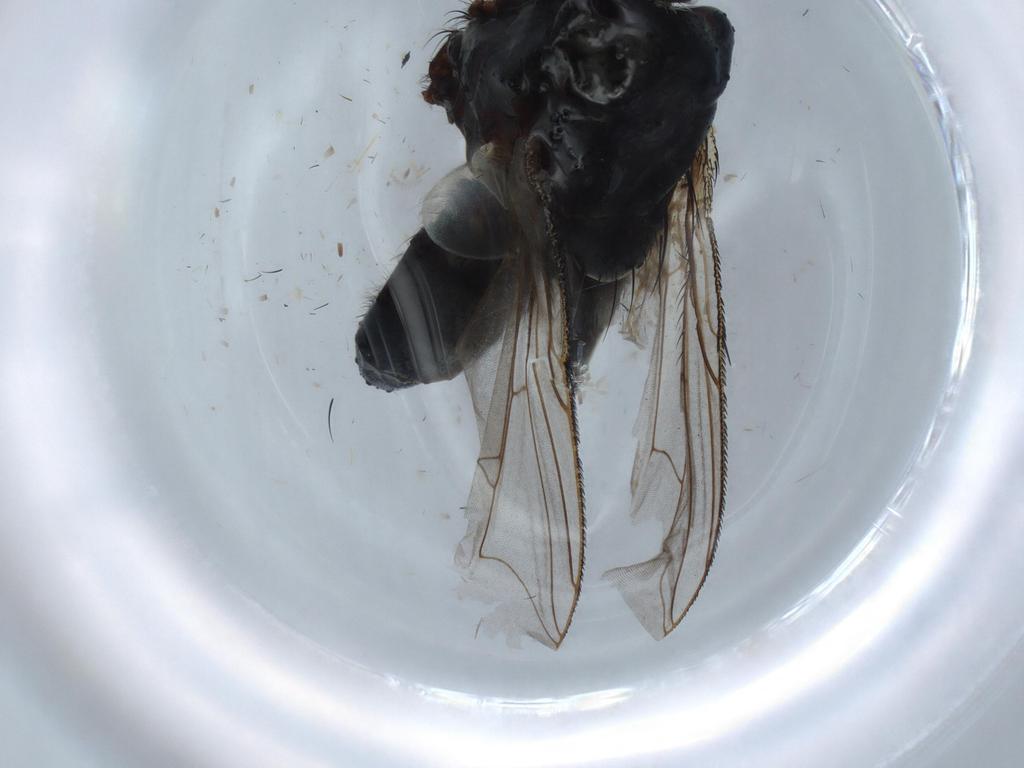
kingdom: Animalia
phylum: Arthropoda
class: Insecta
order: Diptera
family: Sarcophagidae
